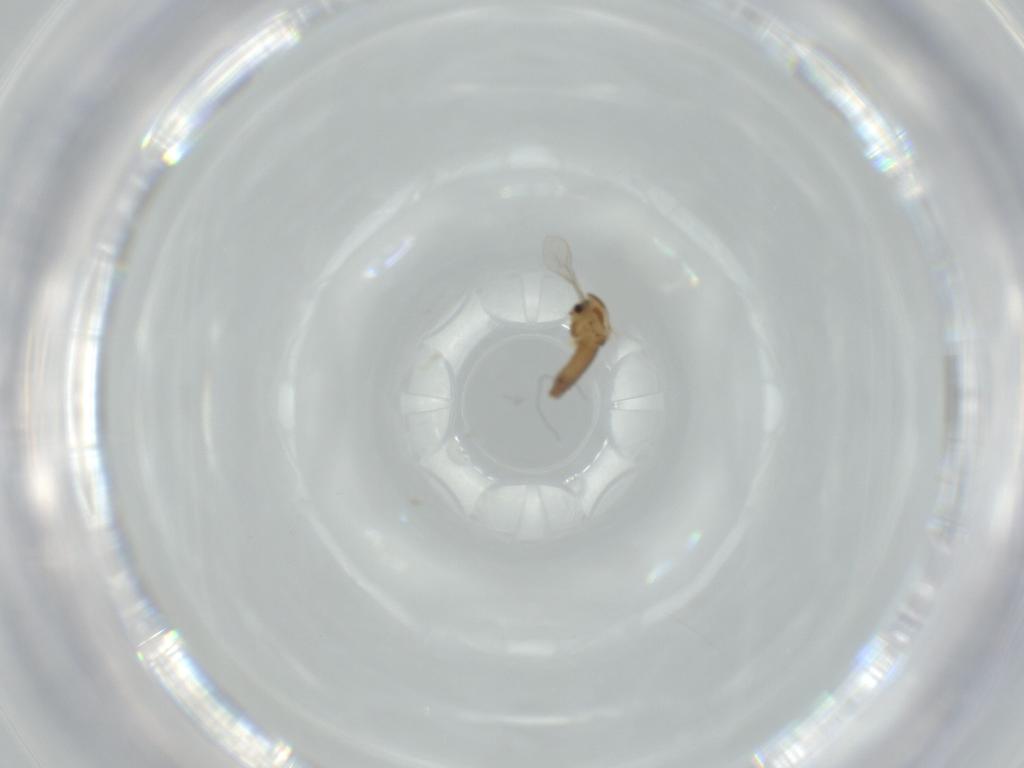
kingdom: Animalia
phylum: Arthropoda
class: Insecta
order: Diptera
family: Chironomidae
